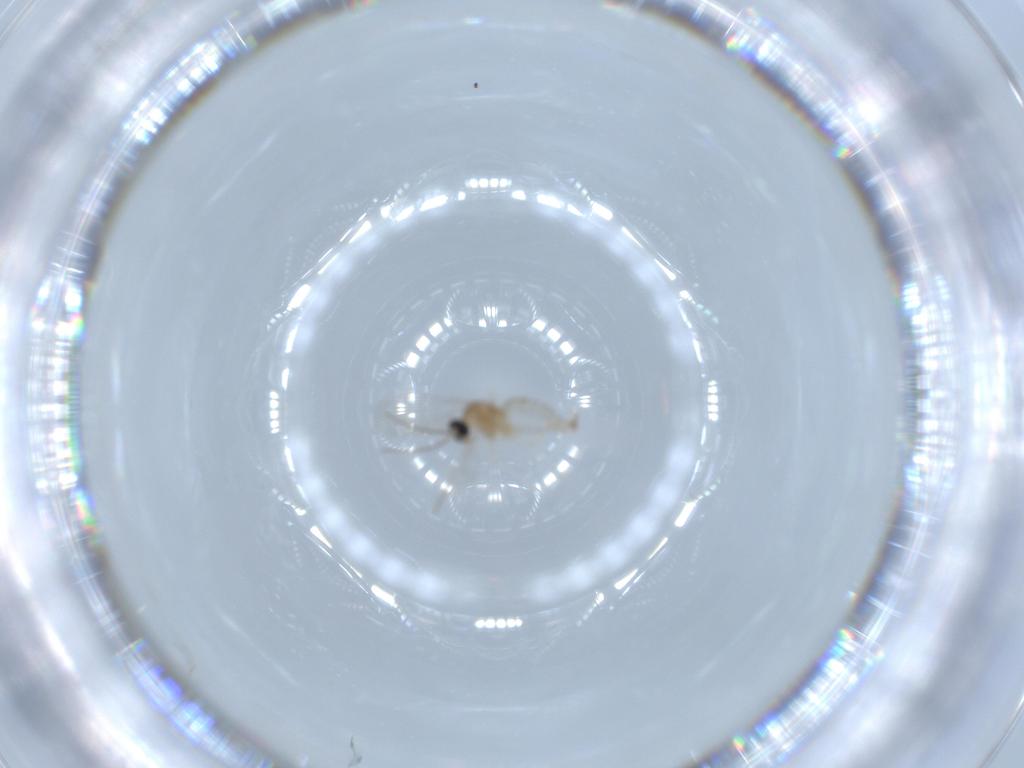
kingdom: Animalia
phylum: Arthropoda
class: Insecta
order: Diptera
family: Cecidomyiidae
